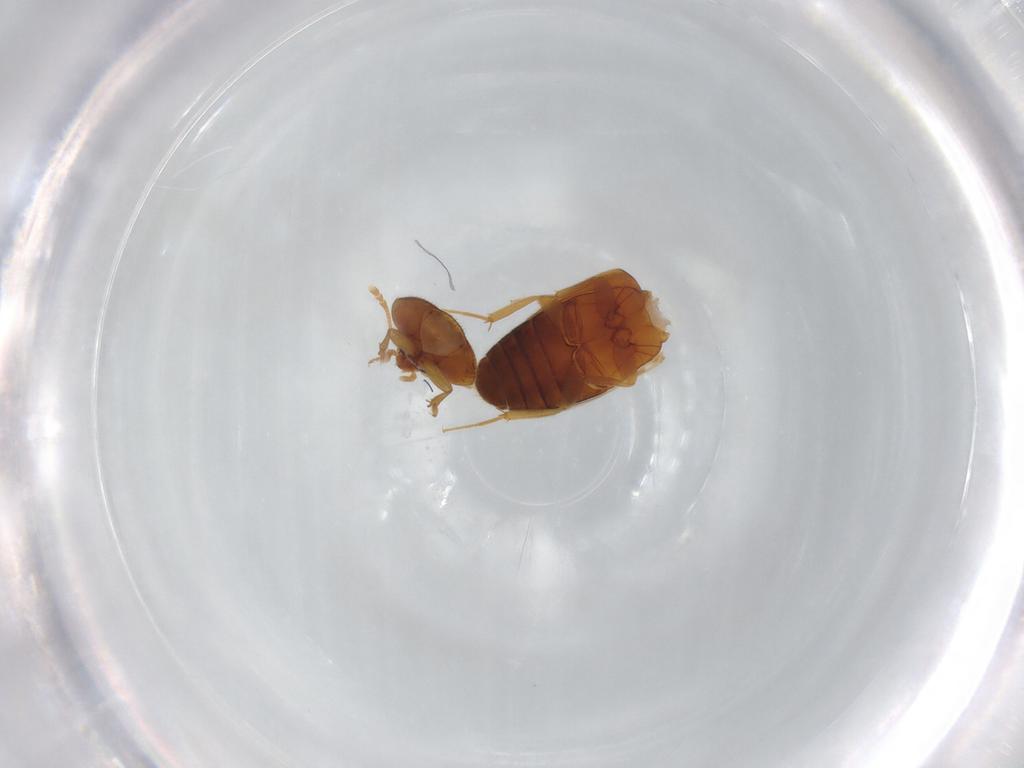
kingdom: Animalia
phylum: Arthropoda
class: Insecta
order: Coleoptera
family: Mycetophagidae
